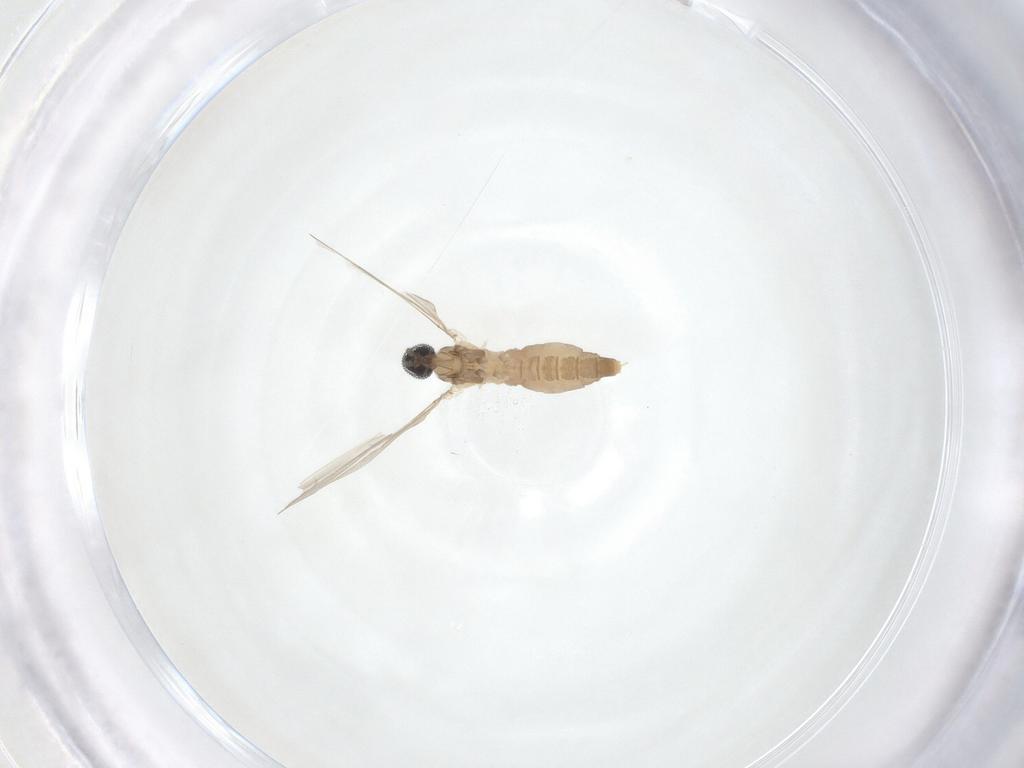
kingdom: Animalia
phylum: Arthropoda
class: Insecta
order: Diptera
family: Cecidomyiidae
